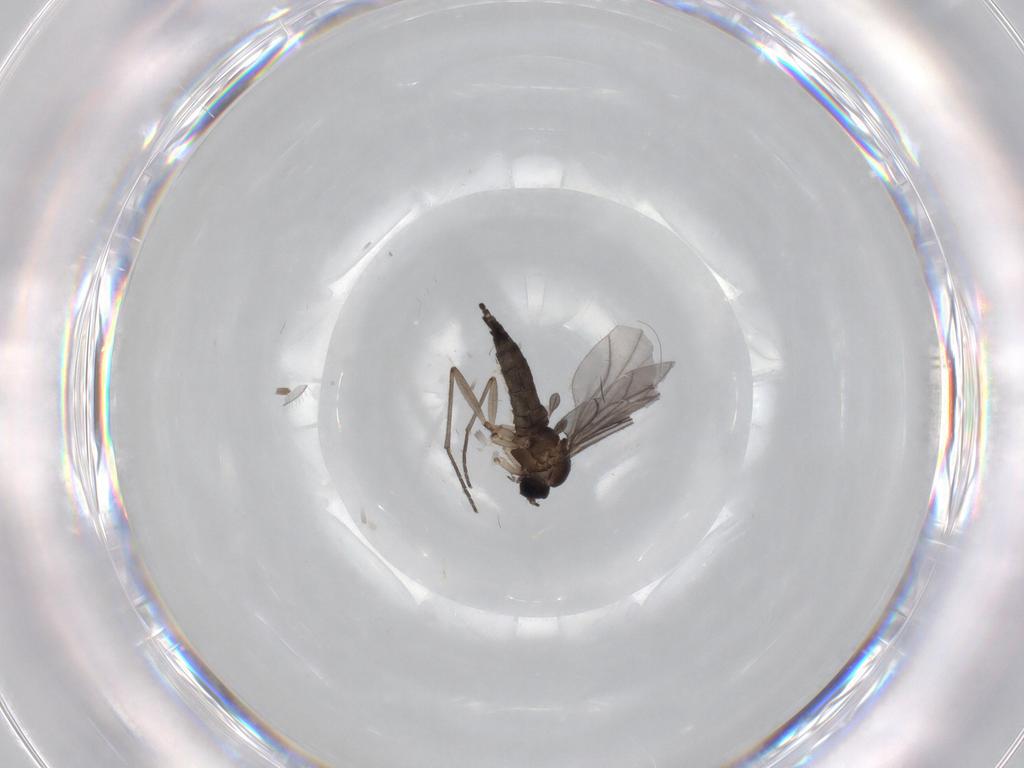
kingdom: Animalia
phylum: Arthropoda
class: Insecta
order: Diptera
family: Sciaridae
